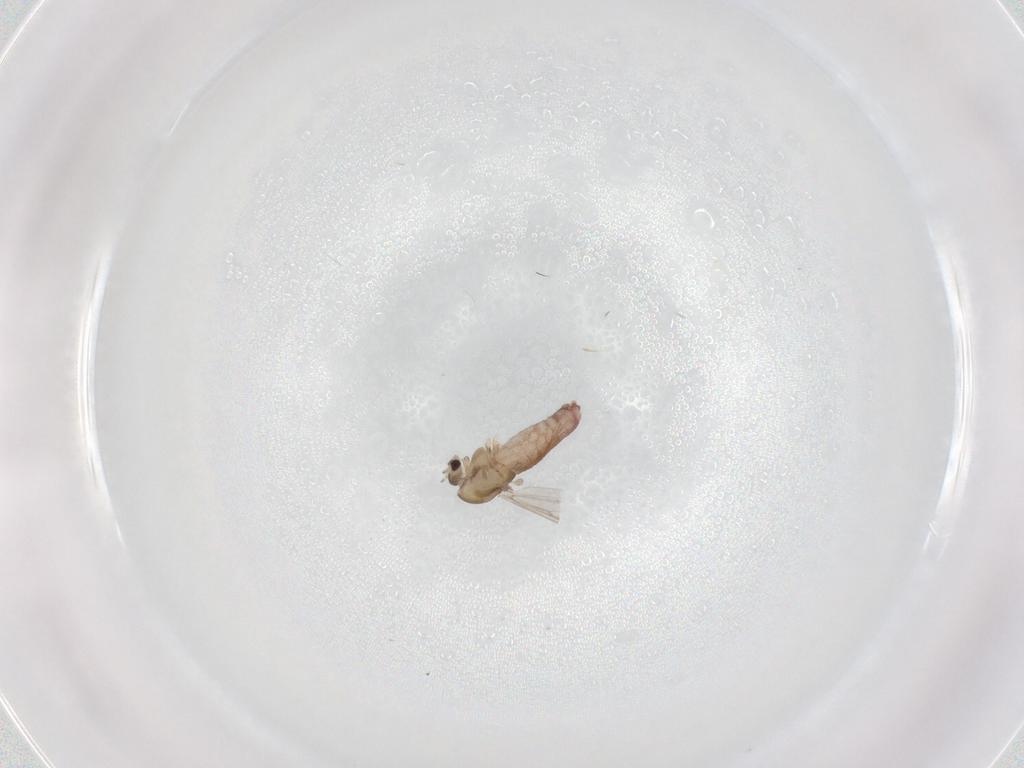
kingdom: Animalia
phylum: Arthropoda
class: Insecta
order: Diptera
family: Chironomidae
